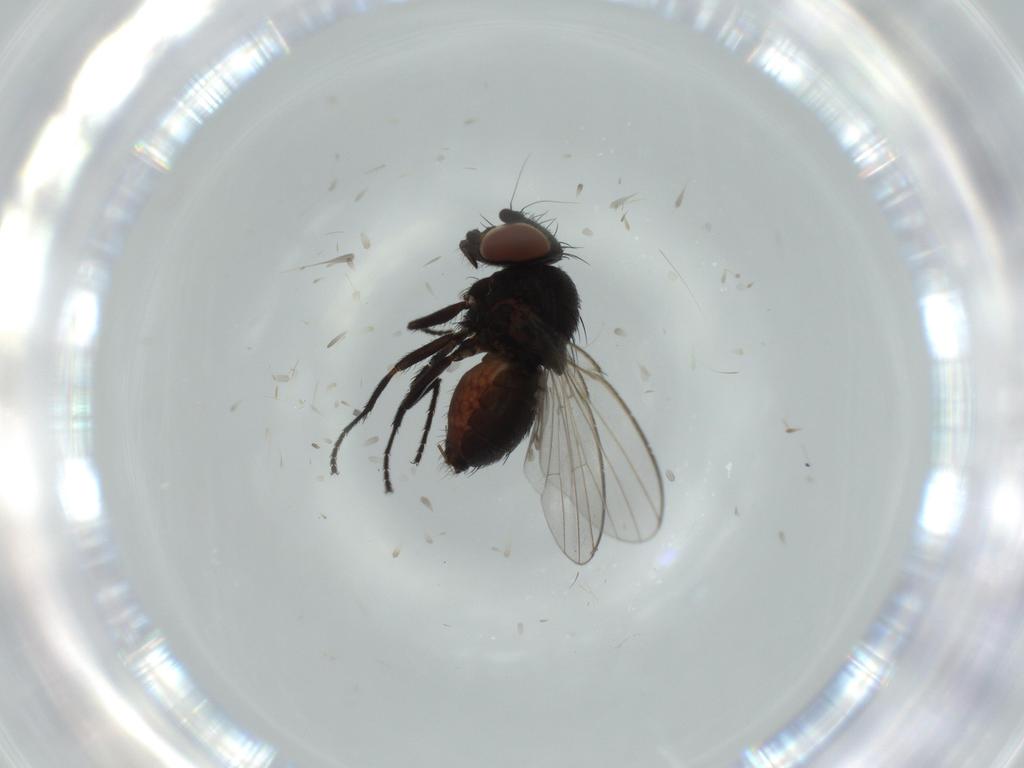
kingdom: Animalia
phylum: Arthropoda
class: Insecta
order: Diptera
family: Milichiidae
